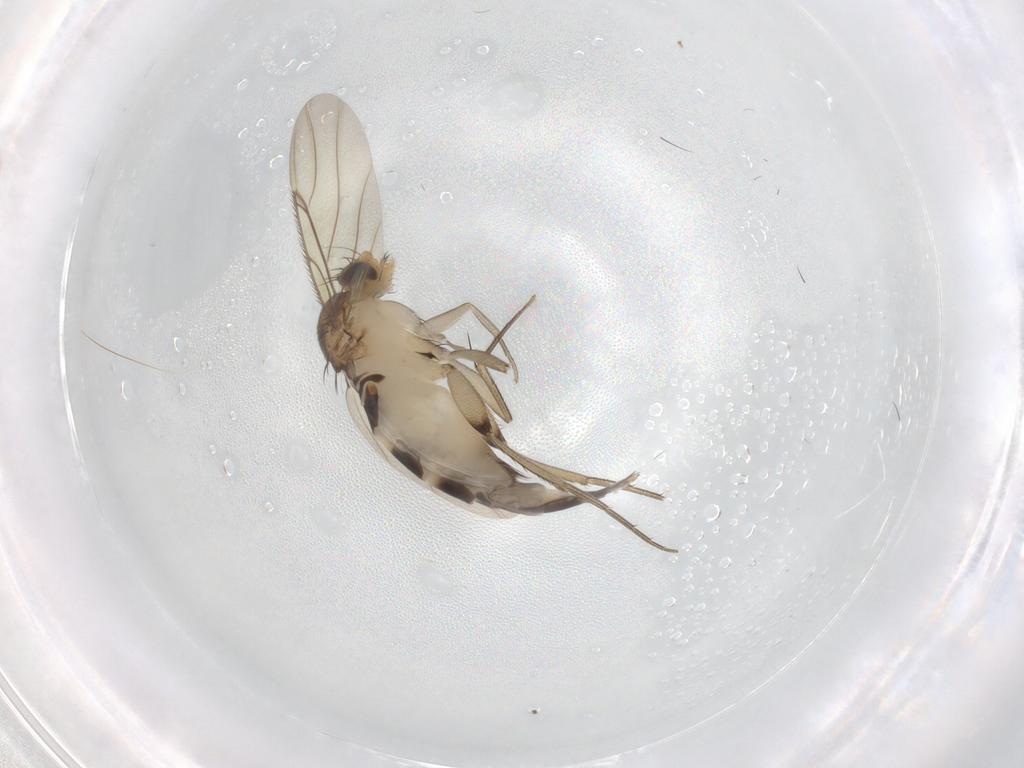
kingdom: Animalia
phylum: Arthropoda
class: Insecta
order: Diptera
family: Phoridae
